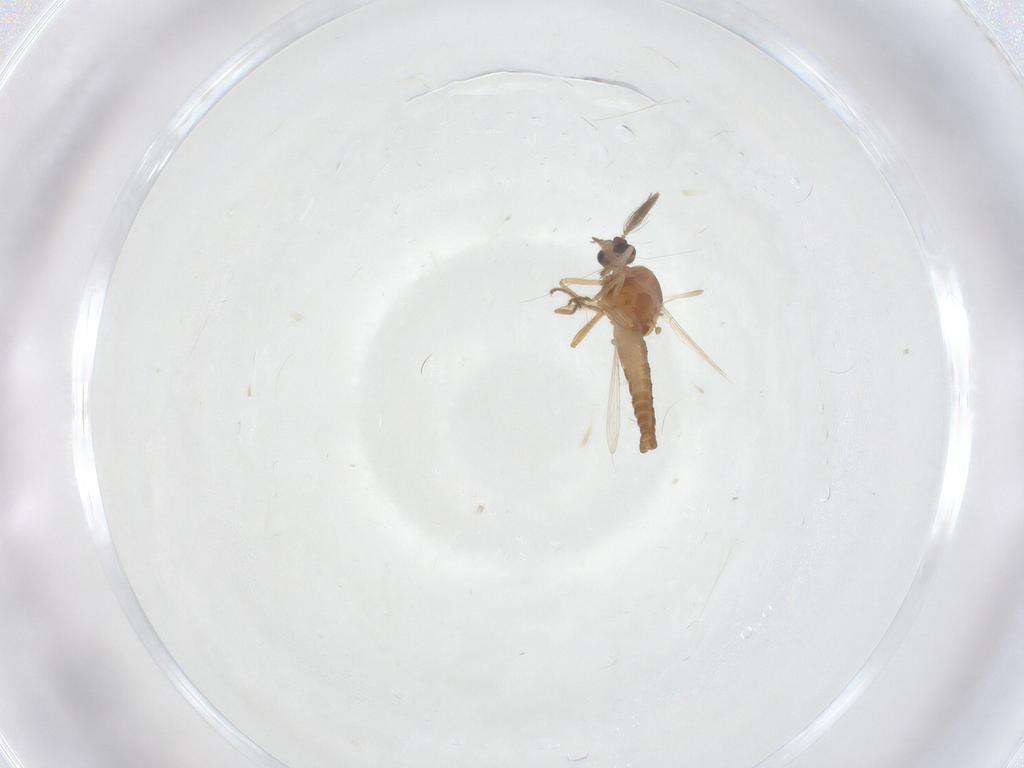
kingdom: Animalia
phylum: Arthropoda
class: Insecta
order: Diptera
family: Ceratopogonidae
